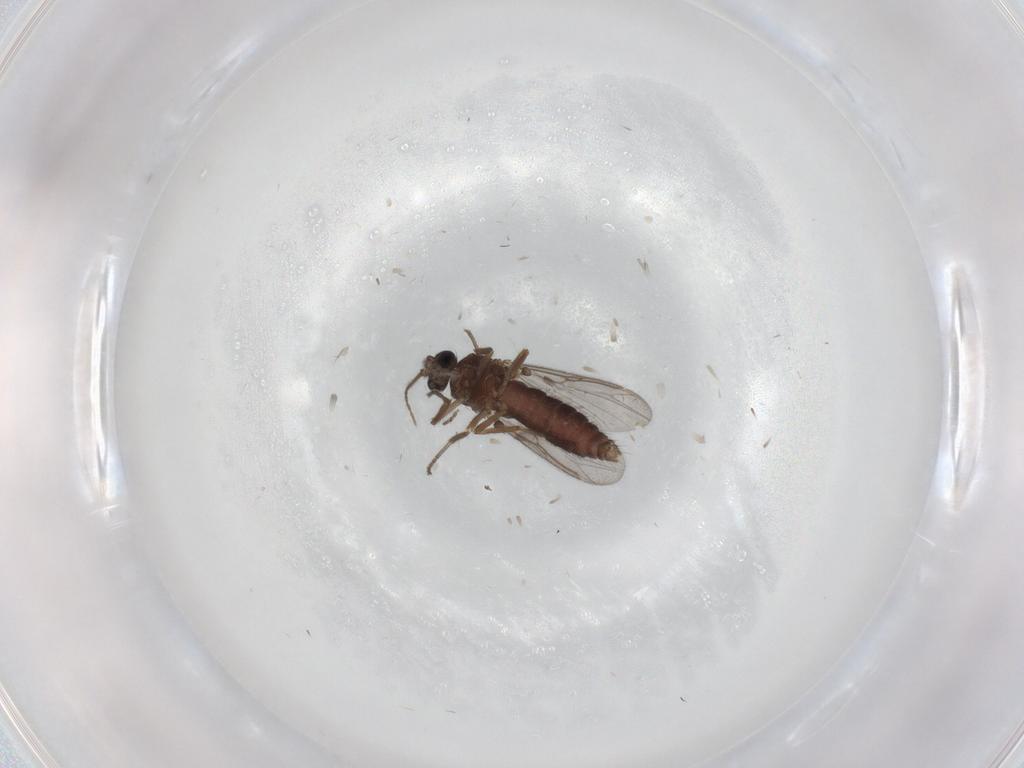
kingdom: Animalia
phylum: Arthropoda
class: Insecta
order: Diptera
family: Ceratopogonidae
